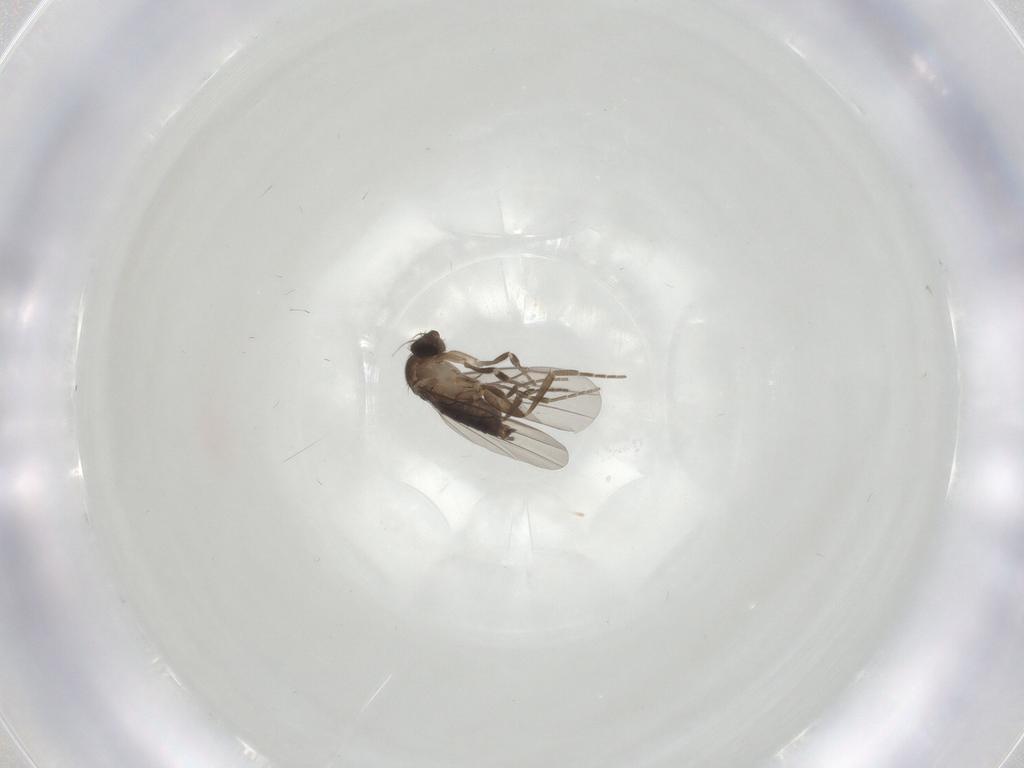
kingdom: Animalia
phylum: Arthropoda
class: Insecta
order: Diptera
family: Phoridae
